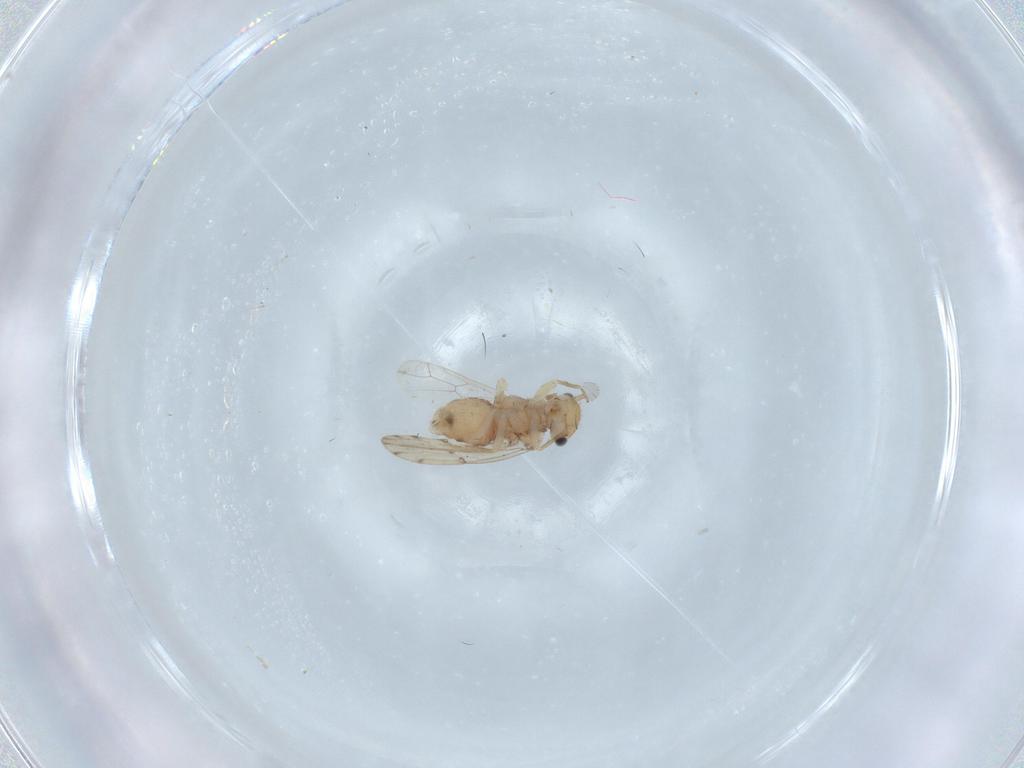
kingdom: Animalia
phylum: Arthropoda
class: Insecta
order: Psocodea
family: Ectopsocidae
